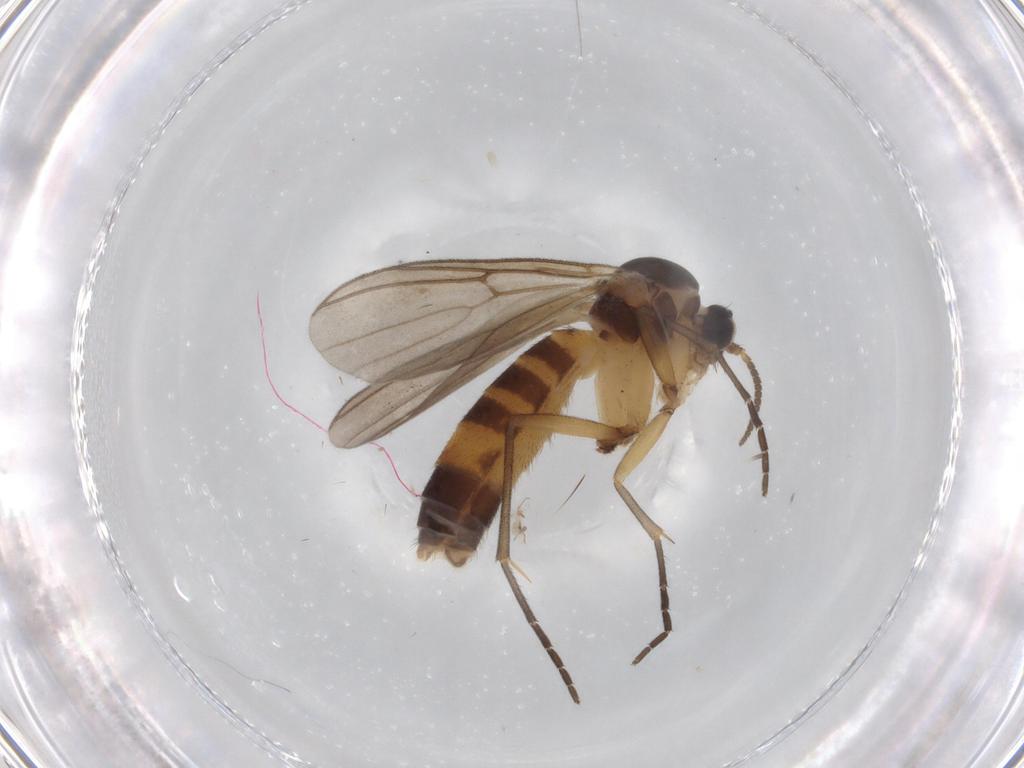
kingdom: Animalia
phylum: Arthropoda
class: Insecta
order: Diptera
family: Mycetophilidae
